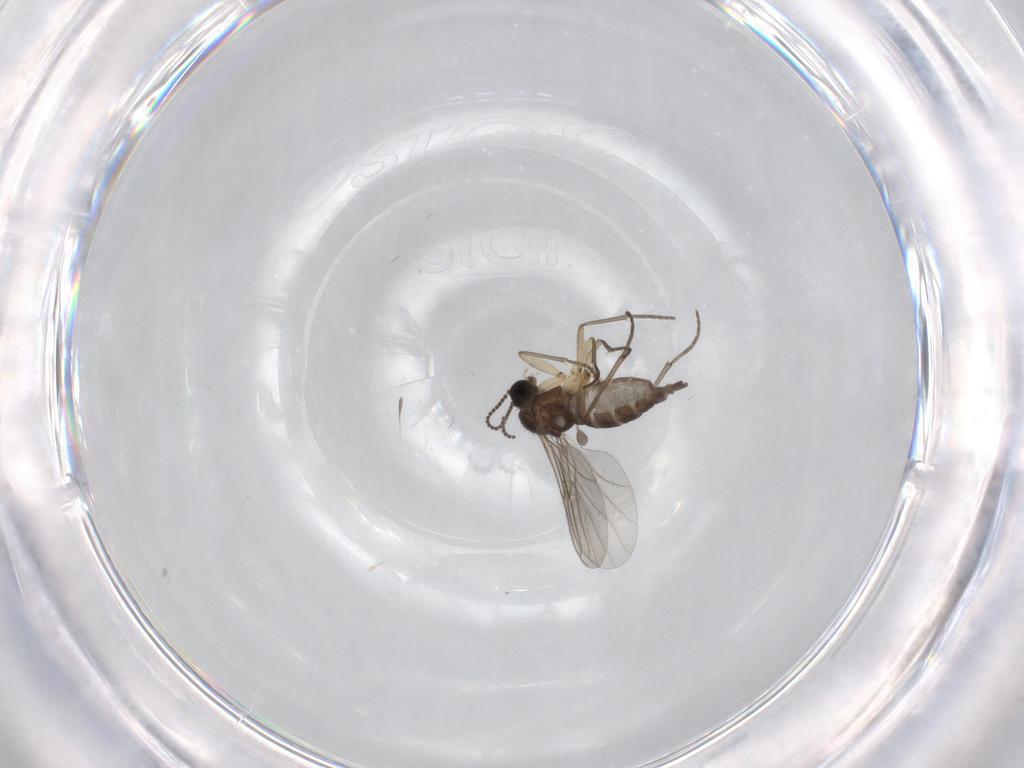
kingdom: Animalia
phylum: Arthropoda
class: Insecta
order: Diptera
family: Sciaridae
